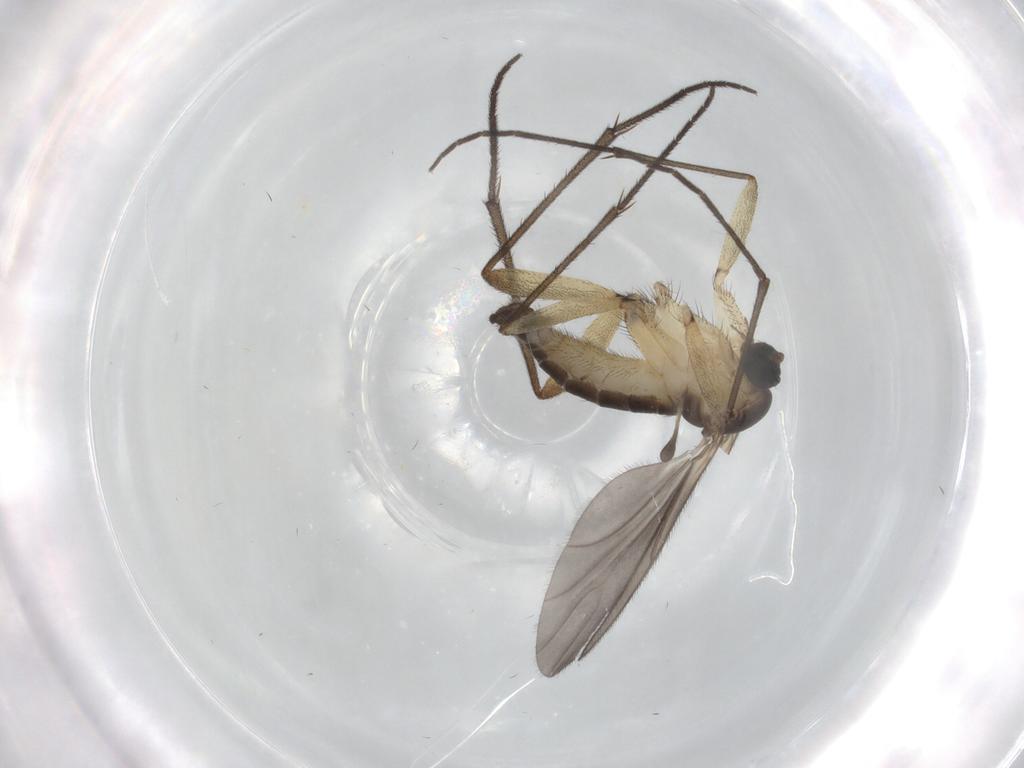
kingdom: Animalia
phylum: Arthropoda
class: Insecta
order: Diptera
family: Sciaridae
